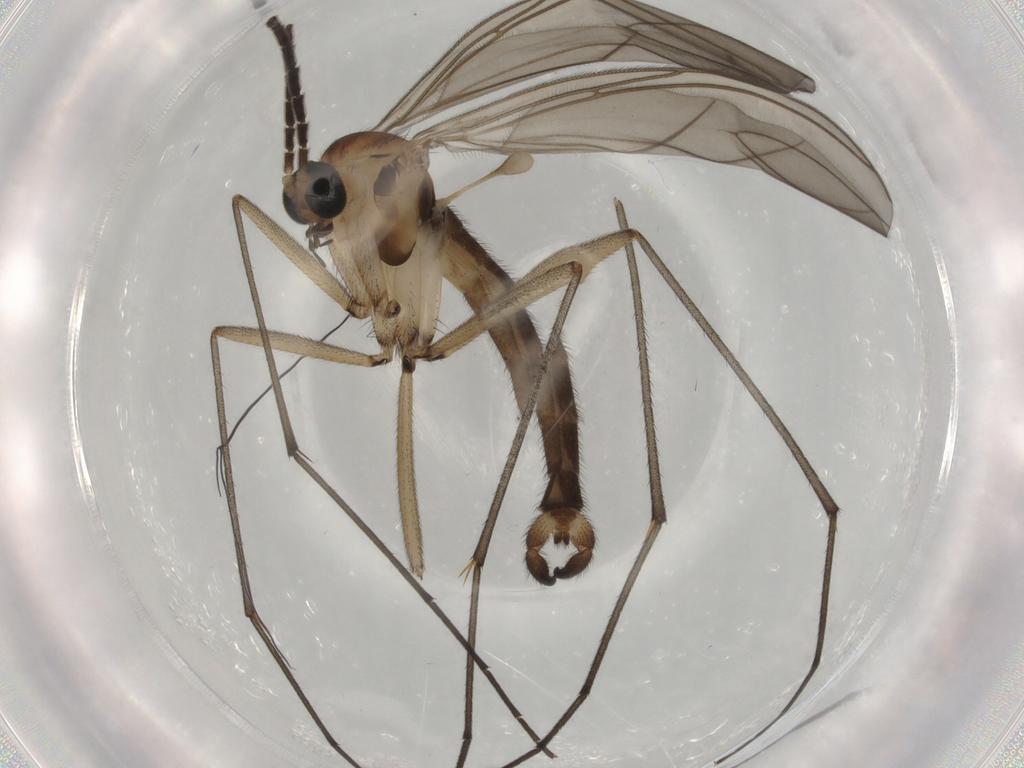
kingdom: Animalia
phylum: Arthropoda
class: Insecta
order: Diptera
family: Sciaridae
